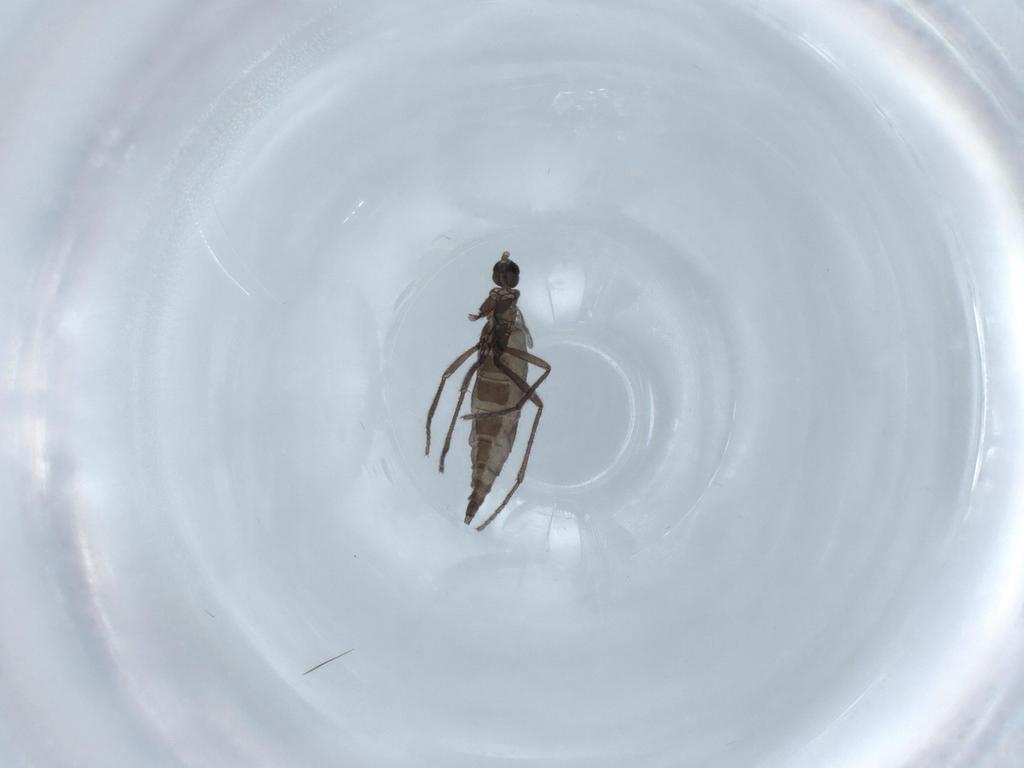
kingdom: Animalia
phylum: Arthropoda
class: Insecta
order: Diptera
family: Sciaridae
